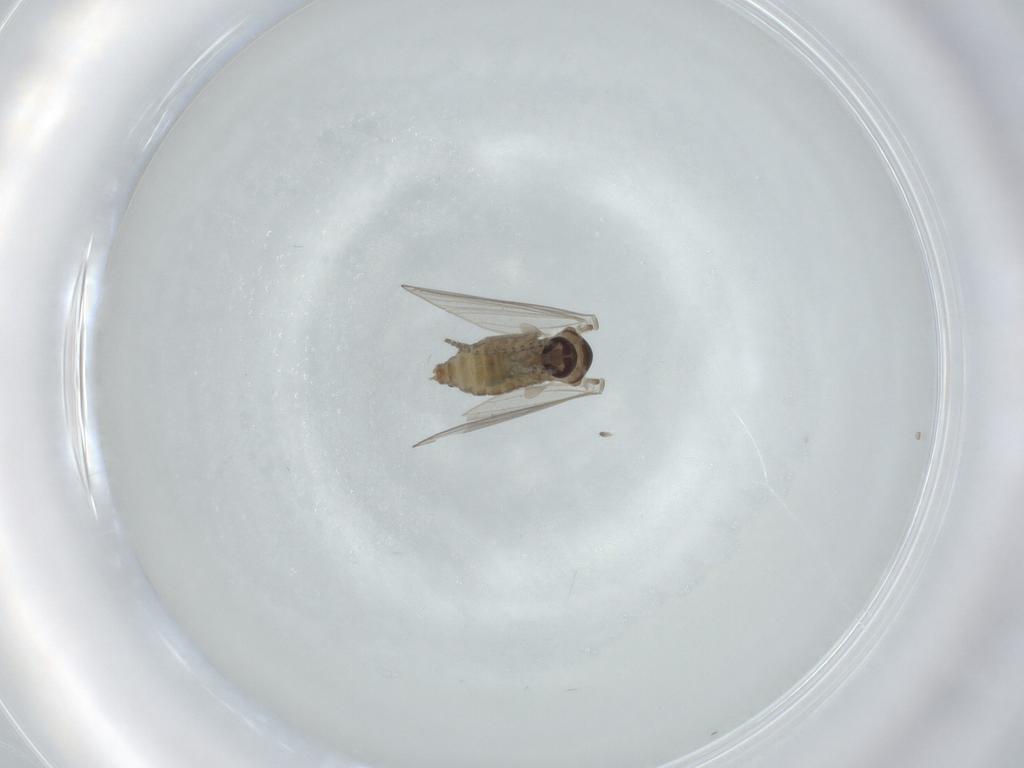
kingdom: Animalia
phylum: Arthropoda
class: Insecta
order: Diptera
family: Psychodidae
